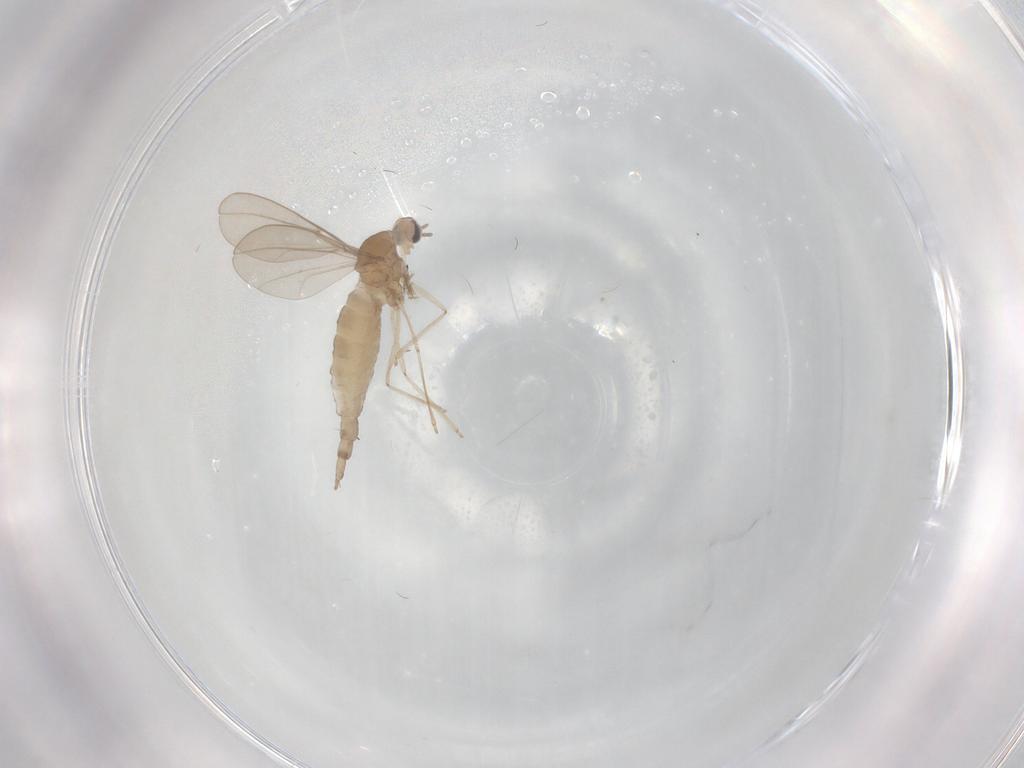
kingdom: Animalia
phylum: Arthropoda
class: Insecta
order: Diptera
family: Cecidomyiidae
